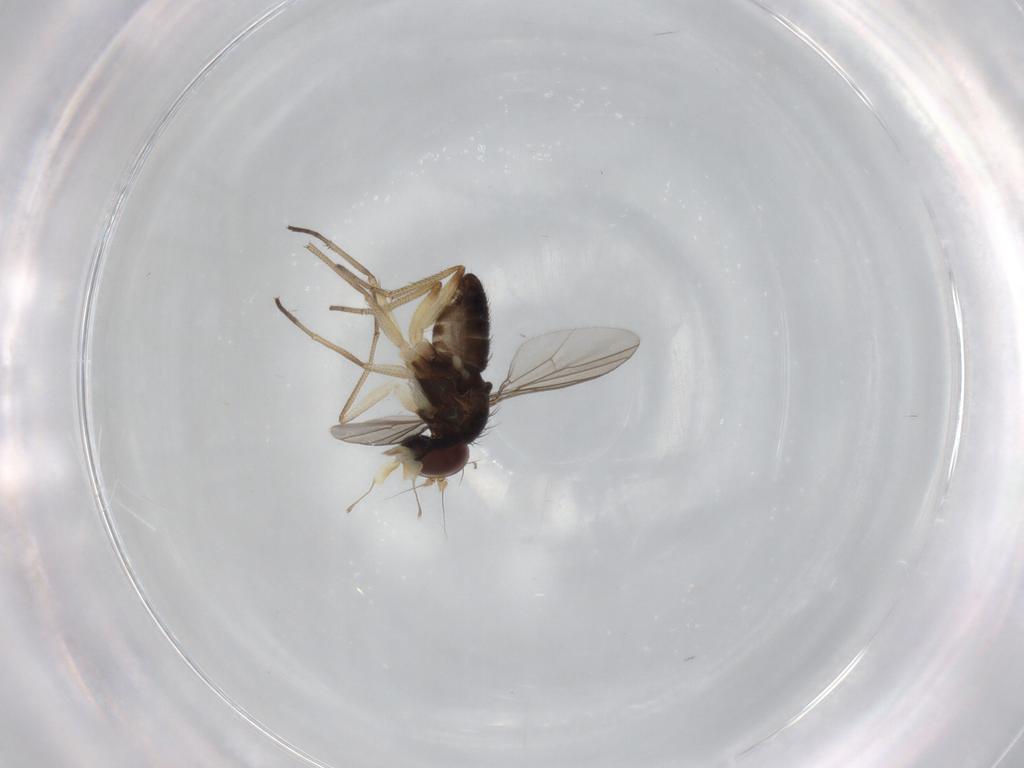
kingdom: Animalia
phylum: Arthropoda
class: Insecta
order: Diptera
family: Dolichopodidae
